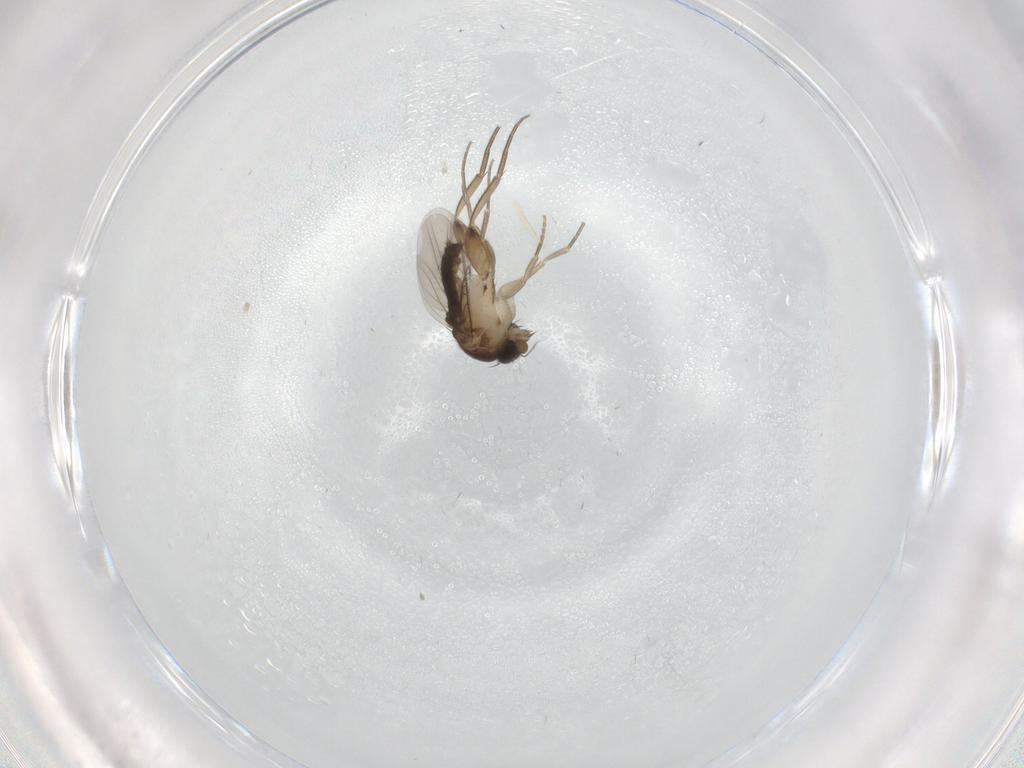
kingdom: Animalia
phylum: Arthropoda
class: Insecta
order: Diptera
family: Phoridae
